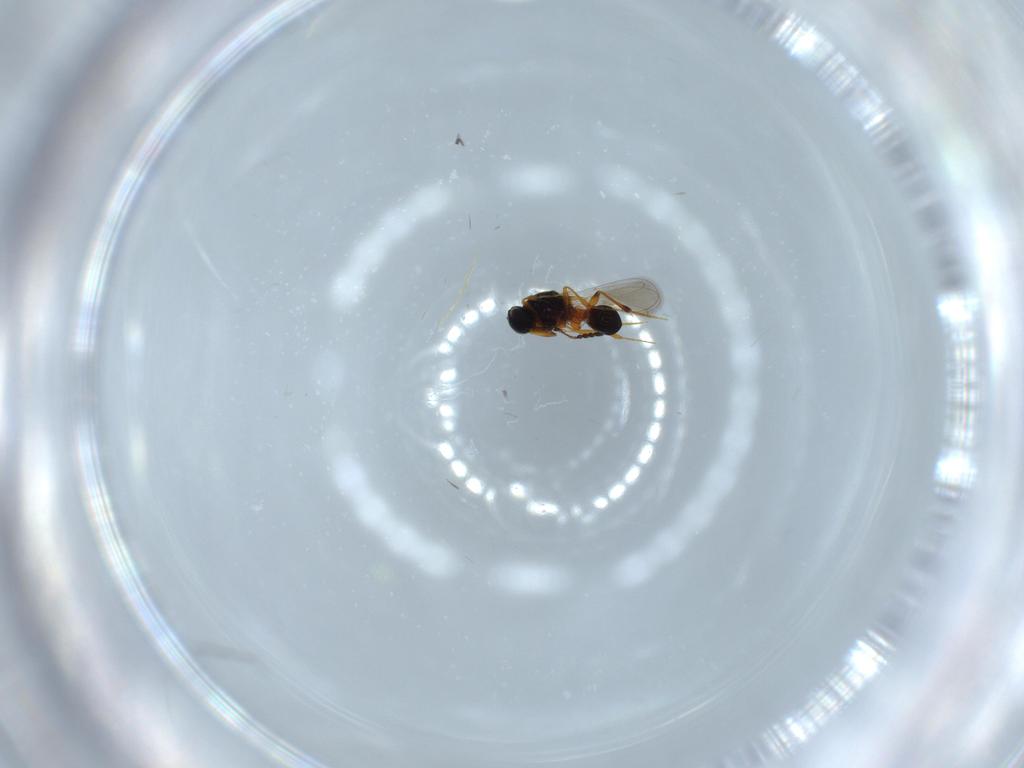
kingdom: Animalia
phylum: Arthropoda
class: Insecta
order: Hymenoptera
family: Platygastridae
